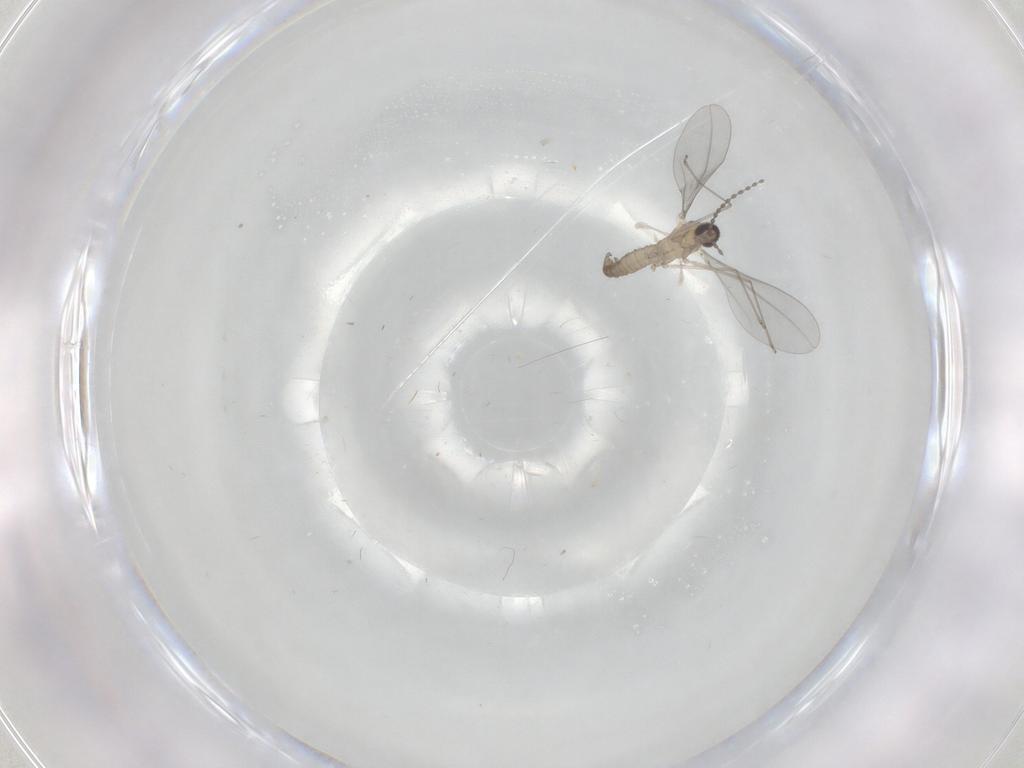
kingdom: Animalia
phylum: Arthropoda
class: Insecta
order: Diptera
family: Cecidomyiidae
